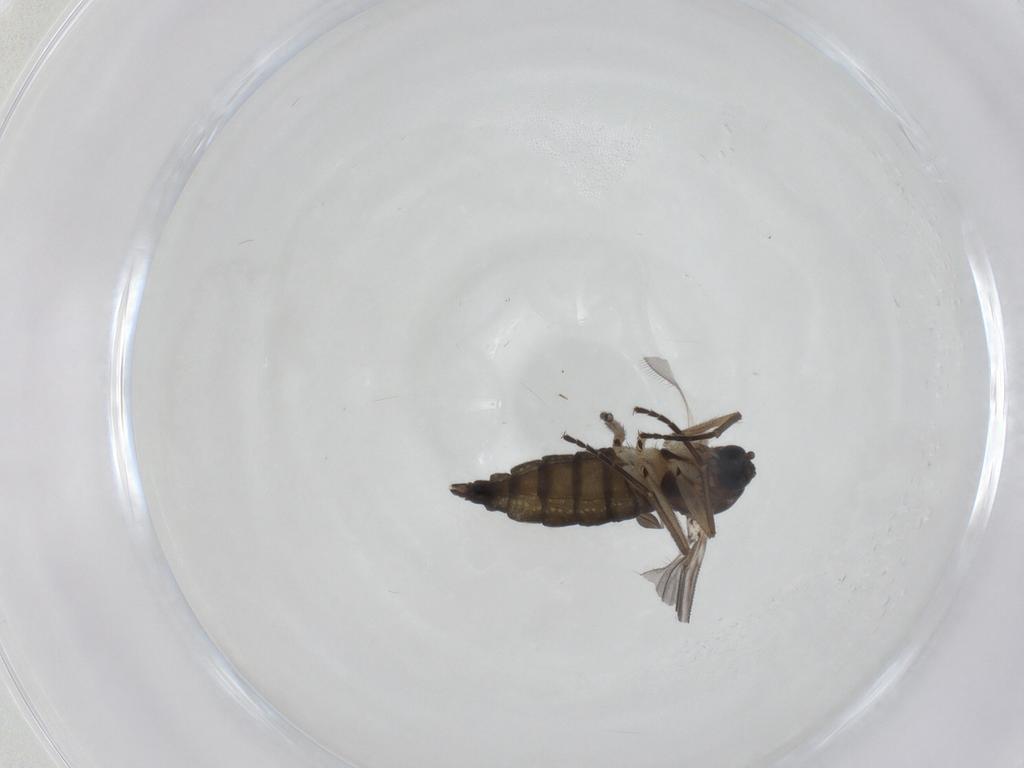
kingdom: Animalia
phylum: Arthropoda
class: Insecta
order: Diptera
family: Sciaridae
